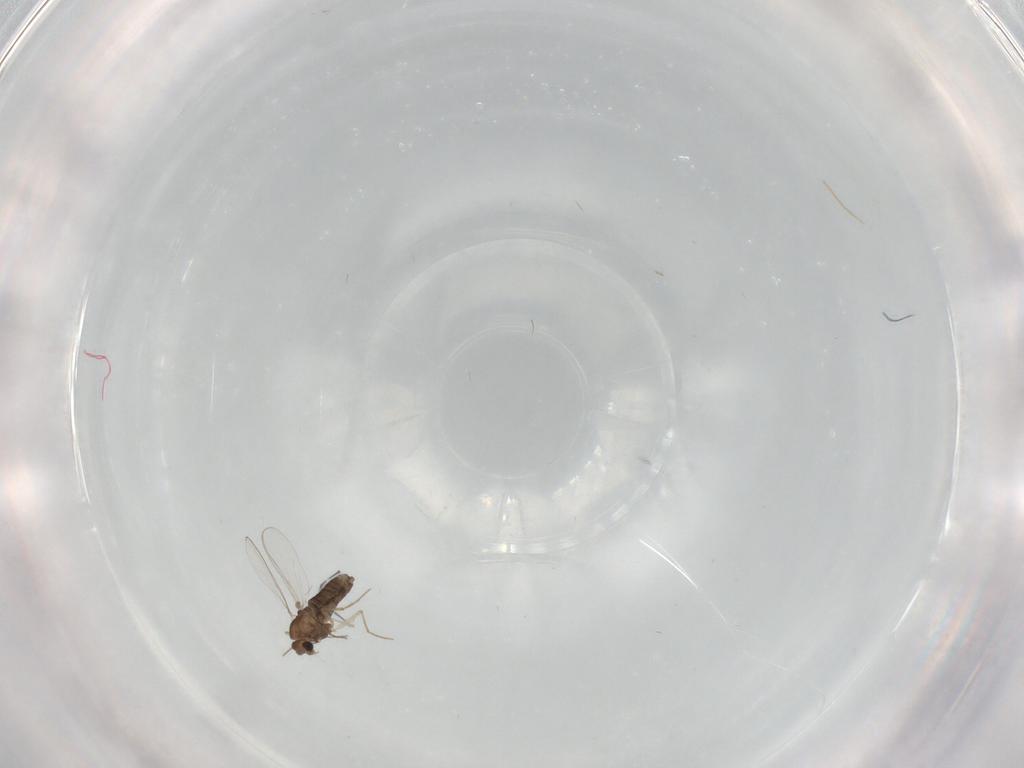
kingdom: Animalia
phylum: Arthropoda
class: Insecta
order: Diptera
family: Chironomidae
